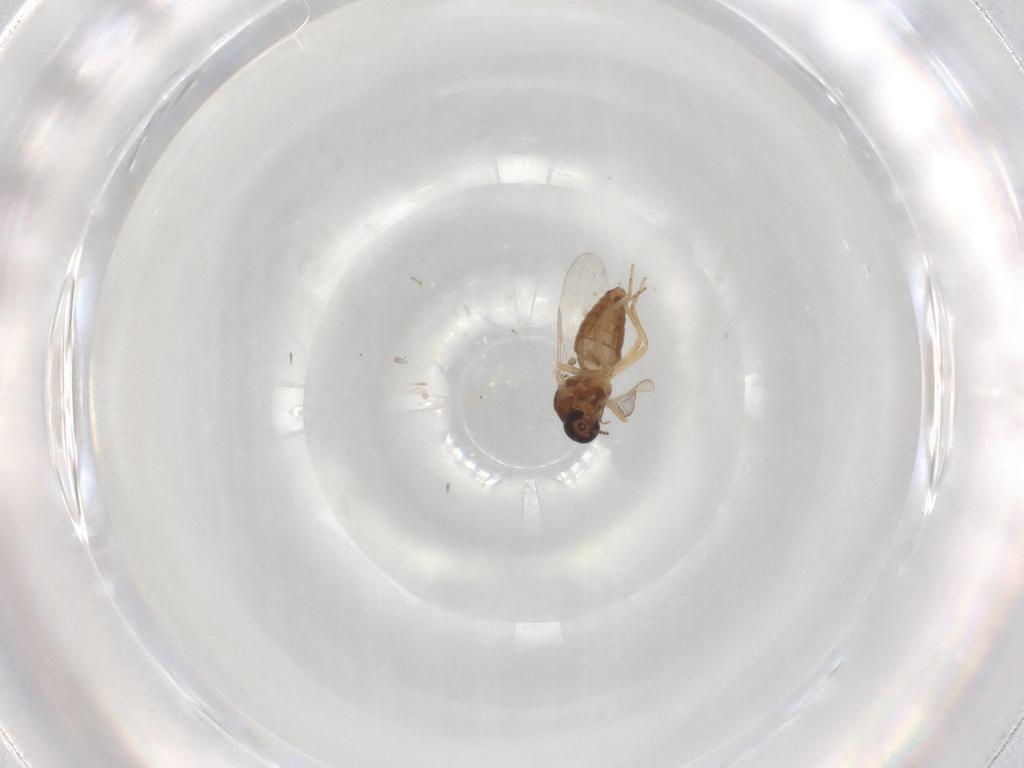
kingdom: Animalia
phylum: Arthropoda
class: Insecta
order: Diptera
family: Ceratopogonidae
